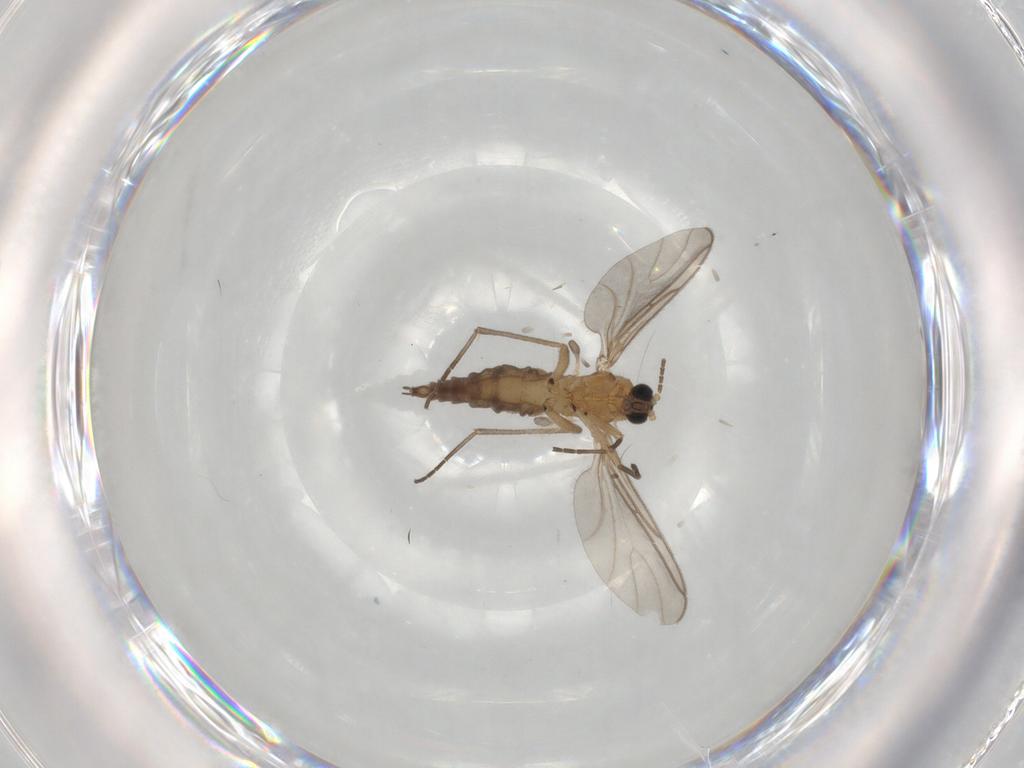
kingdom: Animalia
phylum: Arthropoda
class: Insecta
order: Diptera
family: Sciaridae
